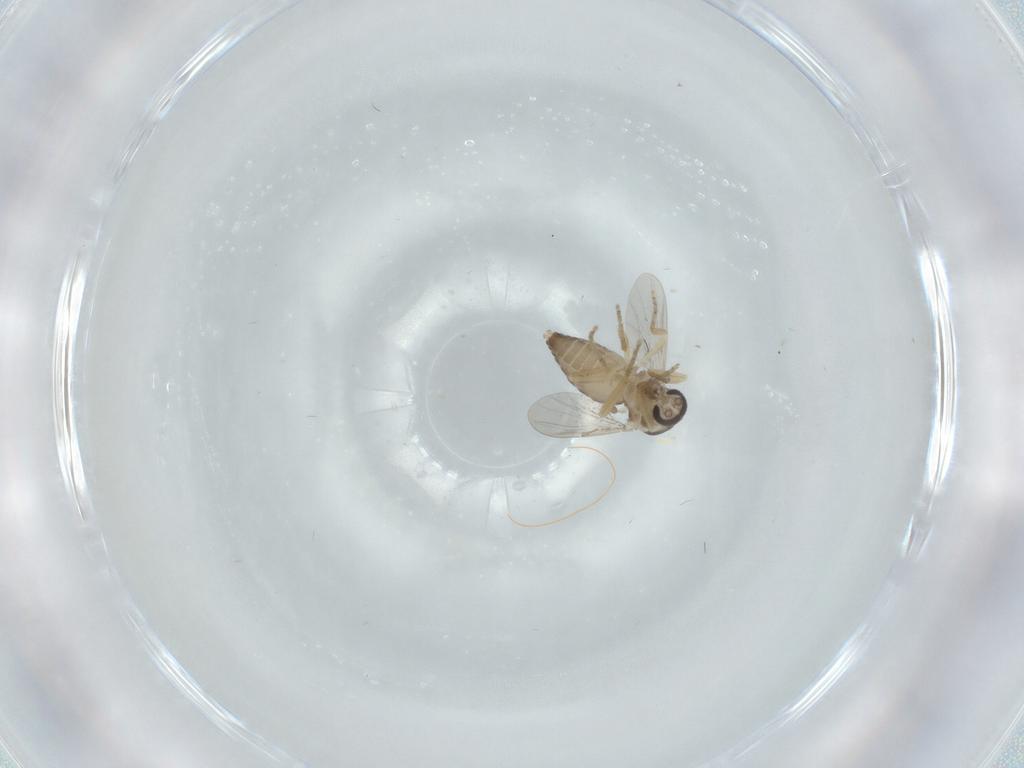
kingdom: Animalia
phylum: Arthropoda
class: Insecta
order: Diptera
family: Ceratopogonidae
